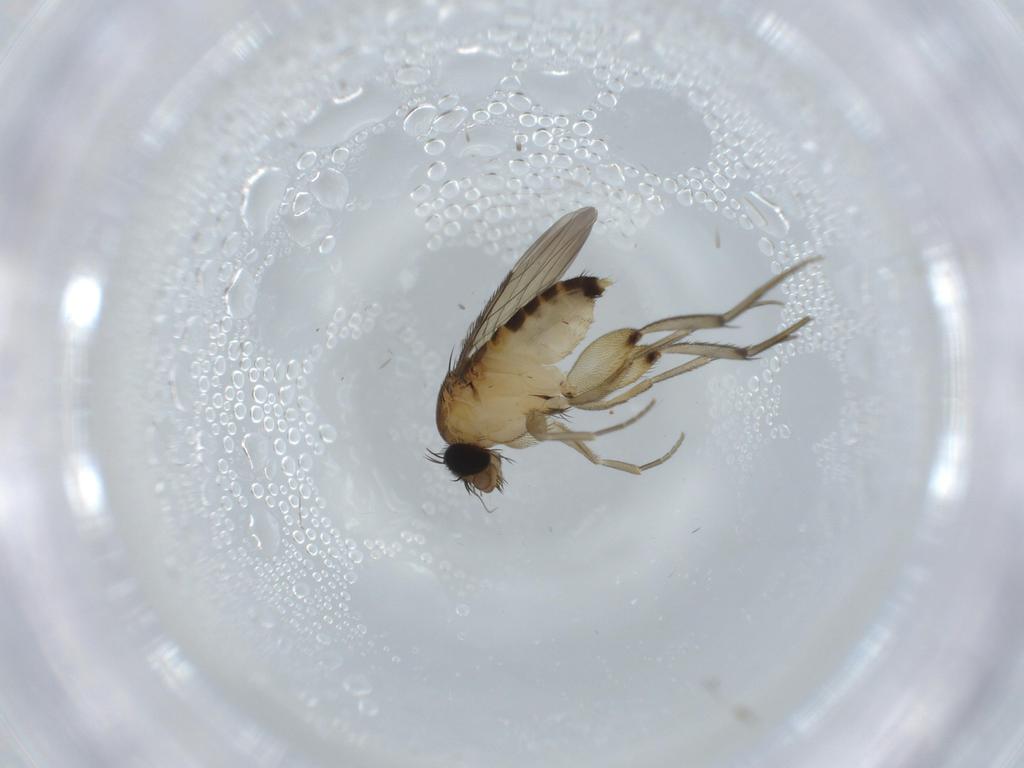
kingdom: Animalia
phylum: Arthropoda
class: Insecta
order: Diptera
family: Phoridae
